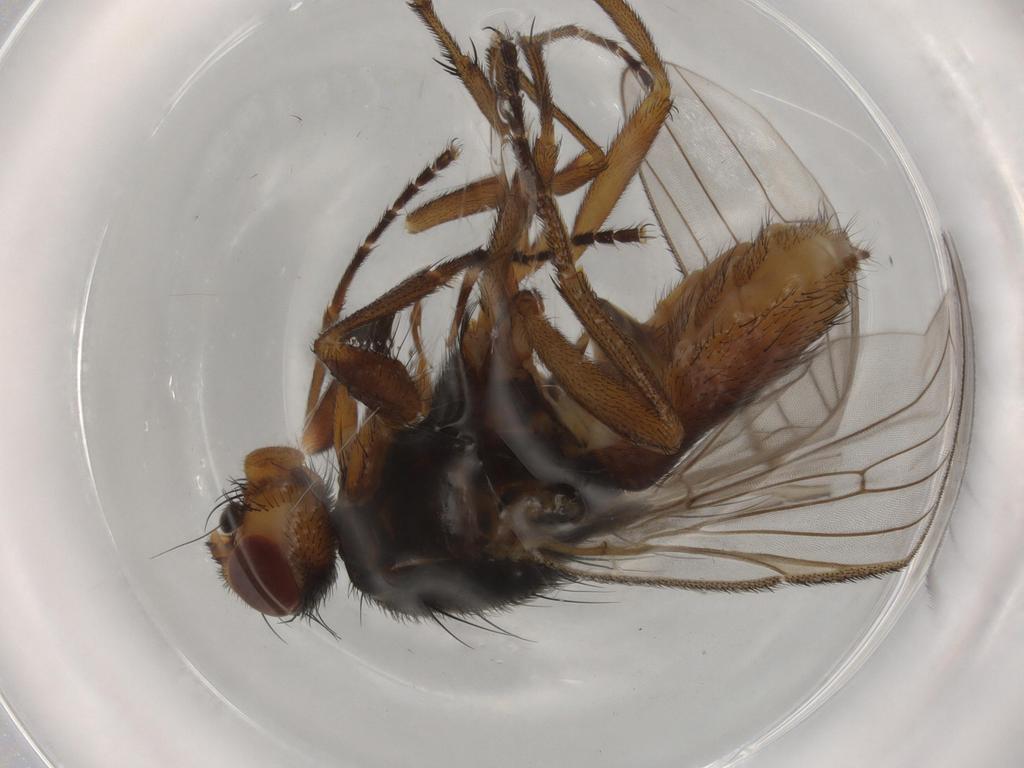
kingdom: Animalia
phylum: Arthropoda
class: Insecta
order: Diptera
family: Heleomyzidae
